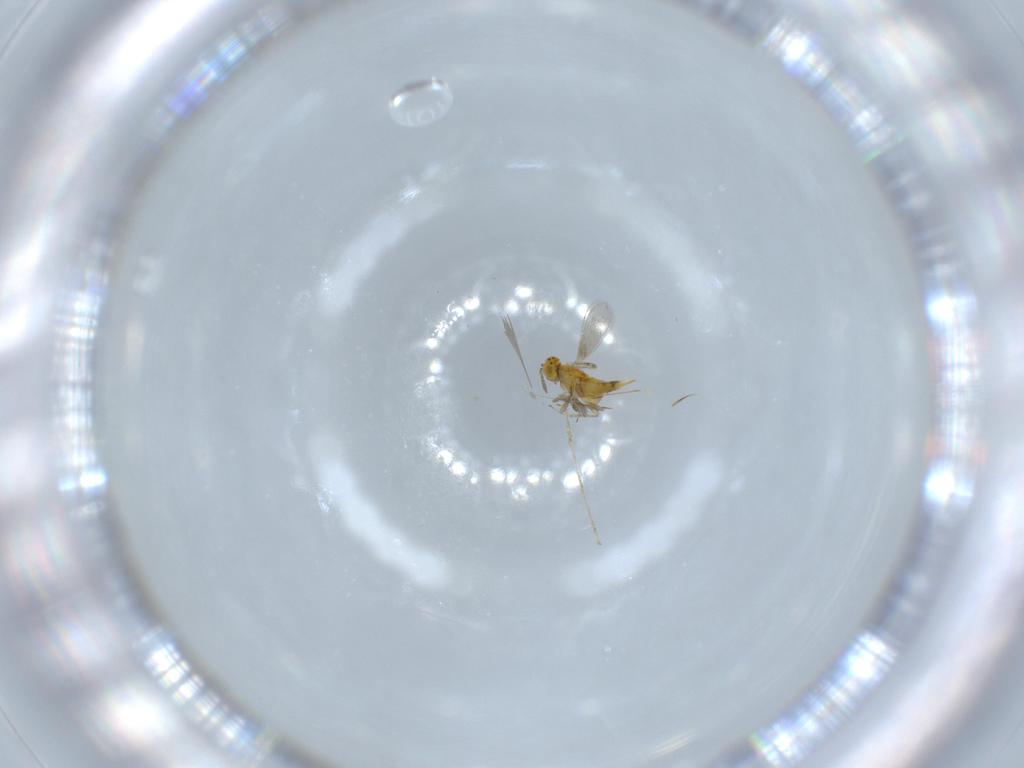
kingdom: Animalia
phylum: Arthropoda
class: Insecta
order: Hymenoptera
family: Aphelinidae
